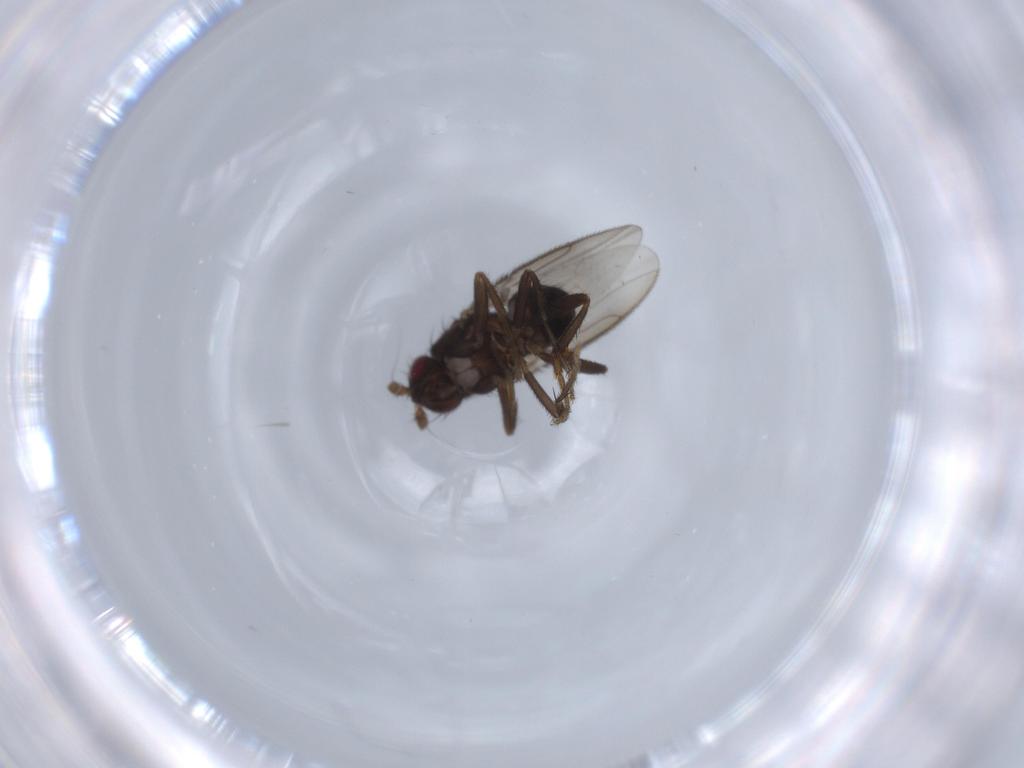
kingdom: Animalia
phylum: Arthropoda
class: Insecta
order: Diptera
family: Sphaeroceridae
